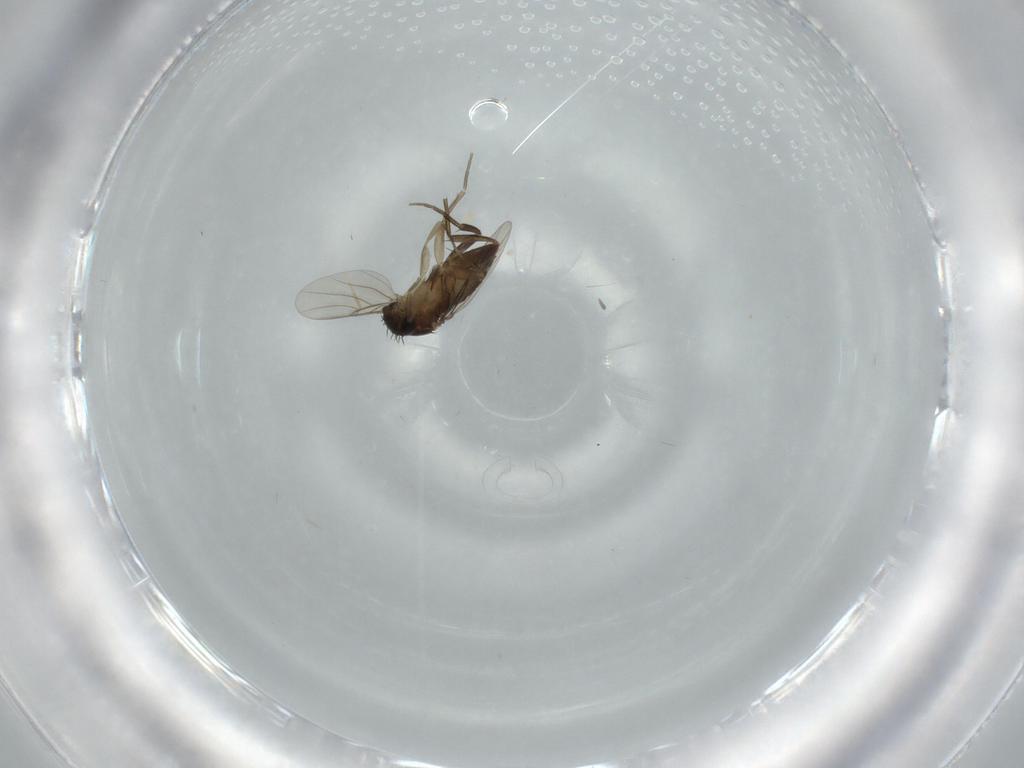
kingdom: Animalia
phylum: Arthropoda
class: Insecta
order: Diptera
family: Phoridae
